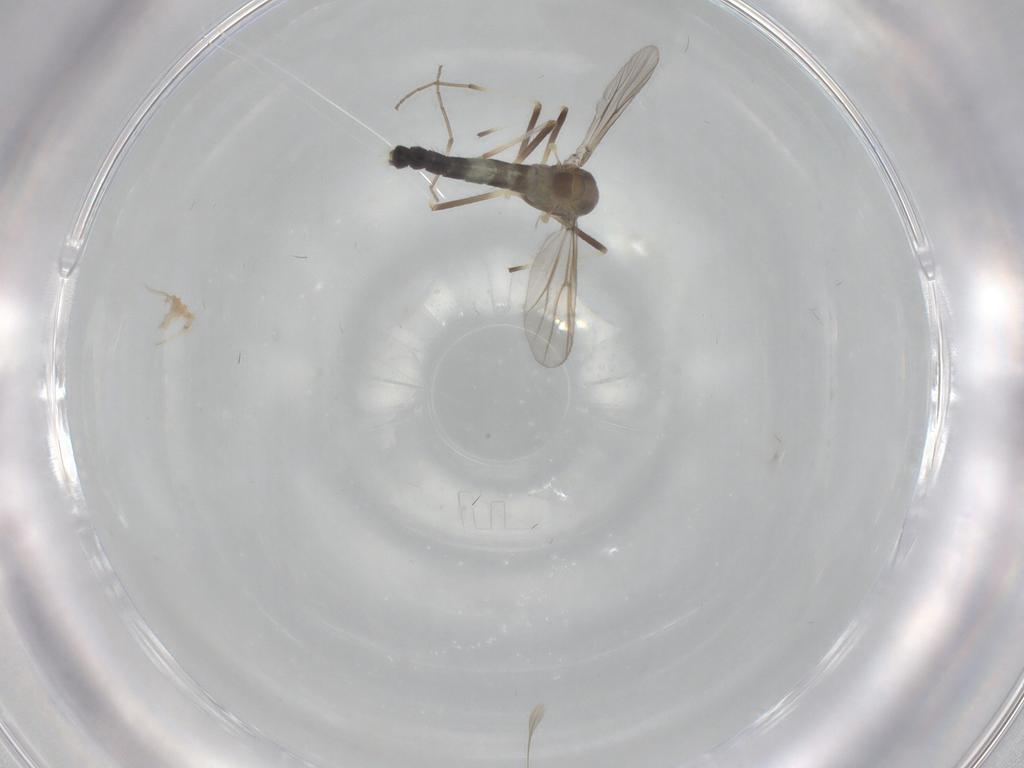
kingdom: Animalia
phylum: Arthropoda
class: Insecta
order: Diptera
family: Chironomidae
